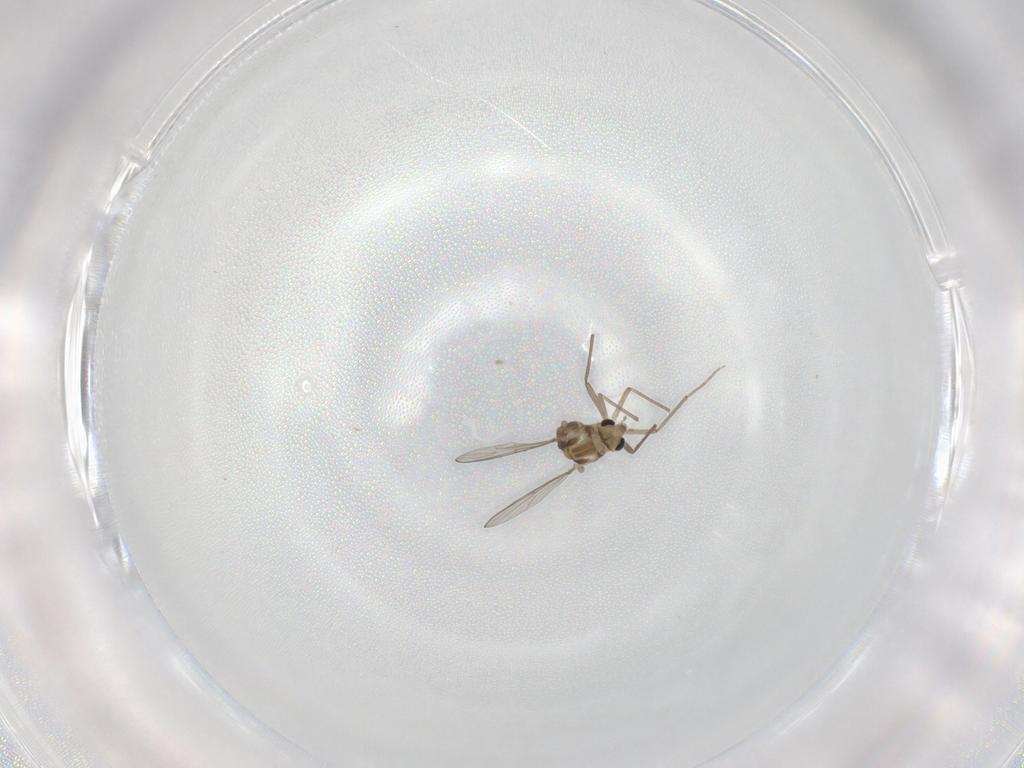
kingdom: Animalia
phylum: Arthropoda
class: Insecta
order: Diptera
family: Chironomidae
